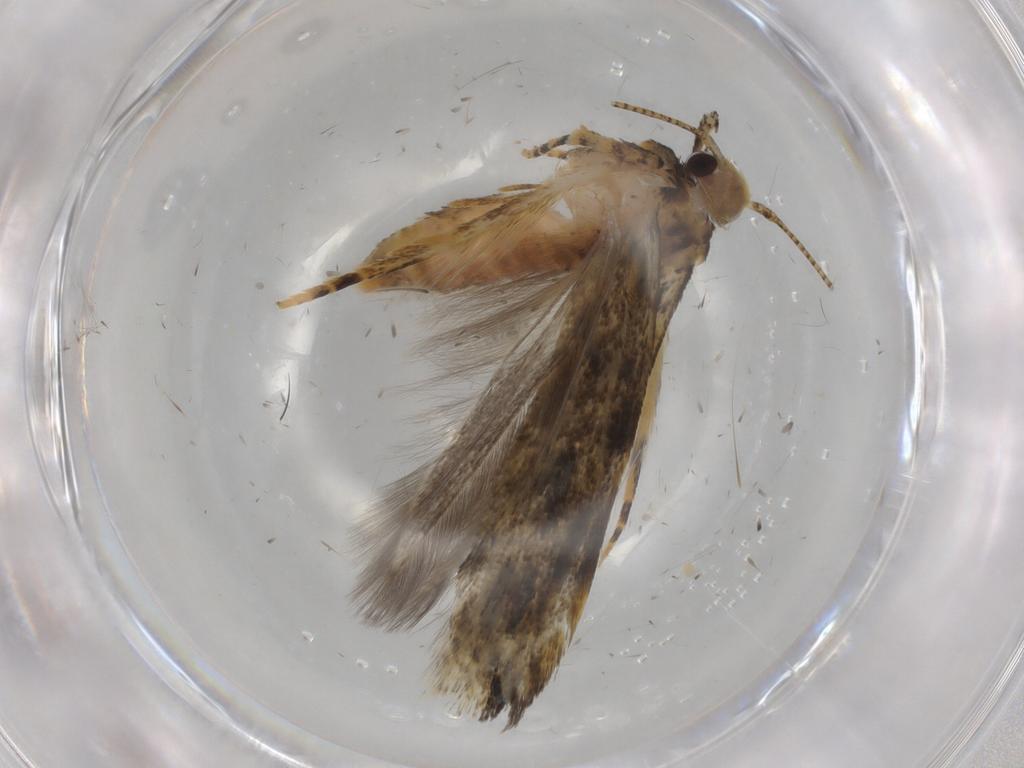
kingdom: Animalia
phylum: Arthropoda
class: Insecta
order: Lepidoptera
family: Gelechiidae
